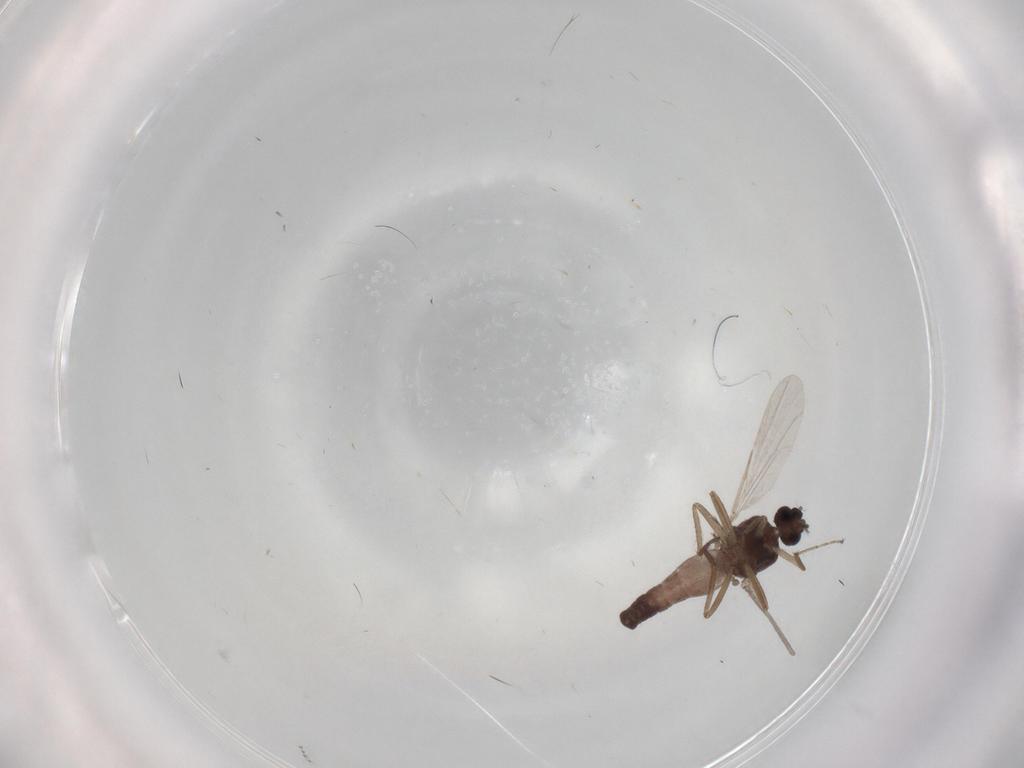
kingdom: Animalia
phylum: Arthropoda
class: Insecta
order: Diptera
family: Ceratopogonidae
